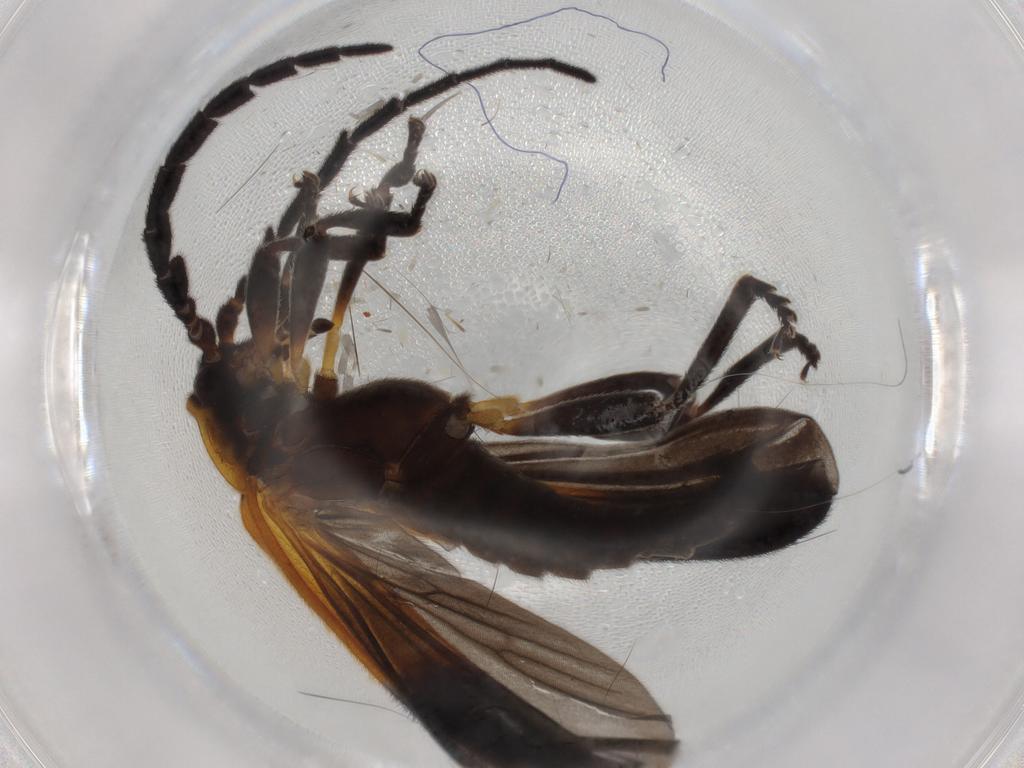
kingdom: Animalia
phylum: Arthropoda
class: Insecta
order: Coleoptera
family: Lycidae
